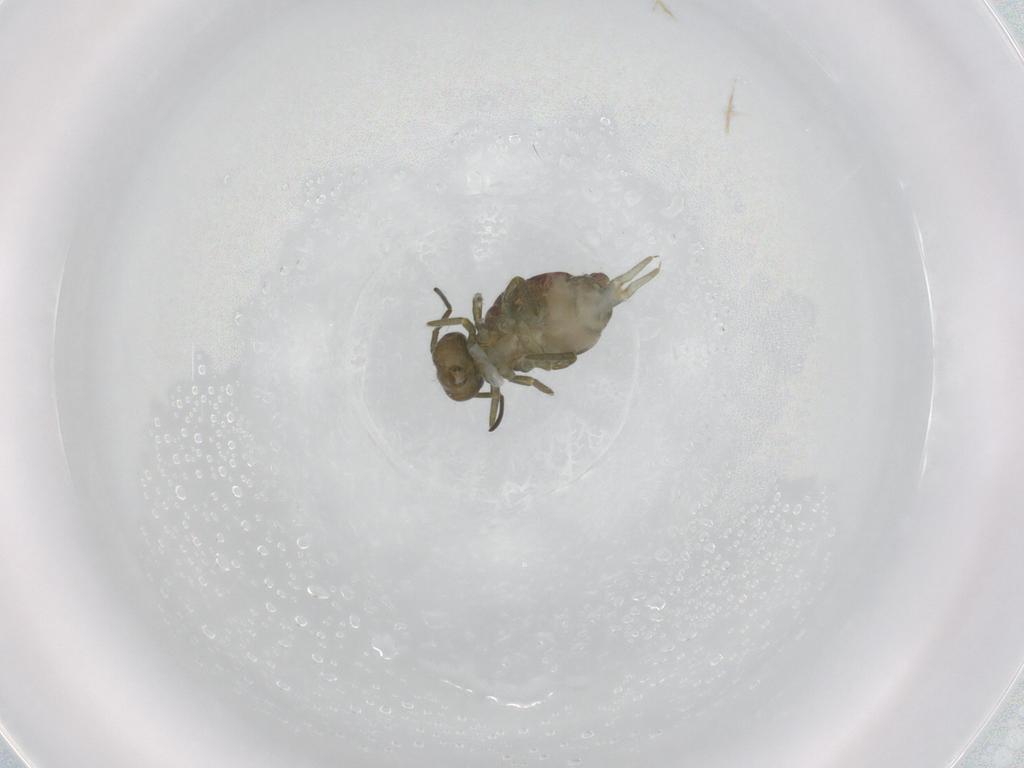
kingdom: Animalia
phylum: Arthropoda
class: Collembola
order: Symphypleona
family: Sminthuridae
